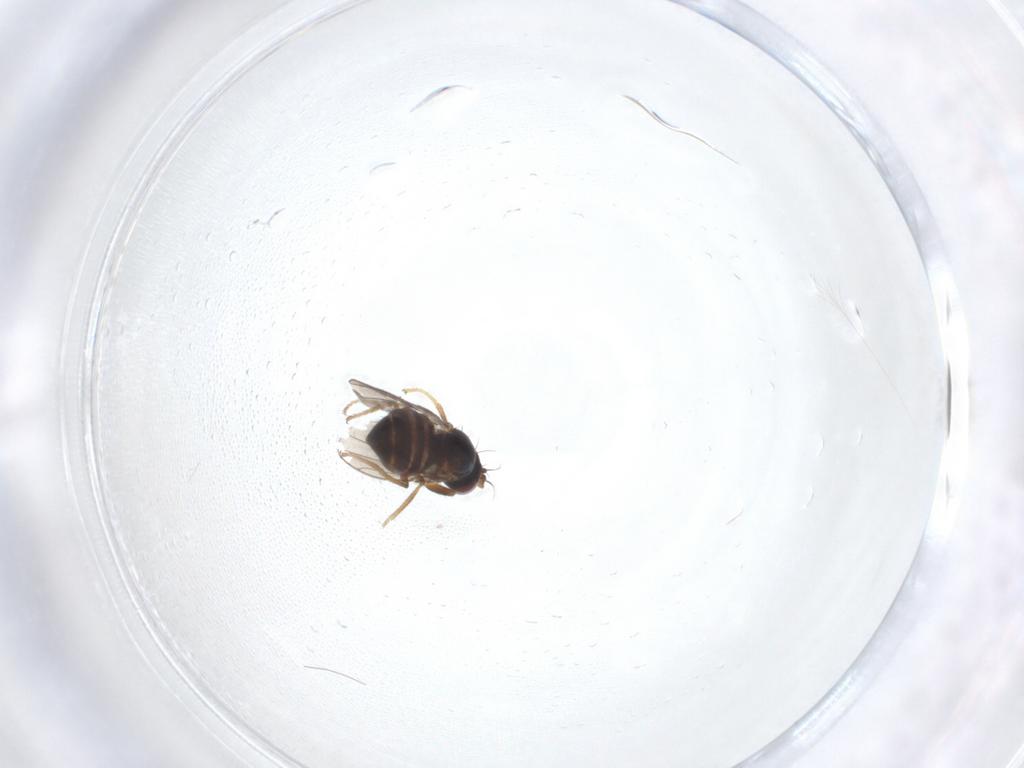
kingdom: Animalia
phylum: Arthropoda
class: Insecta
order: Diptera
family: Ephydridae
